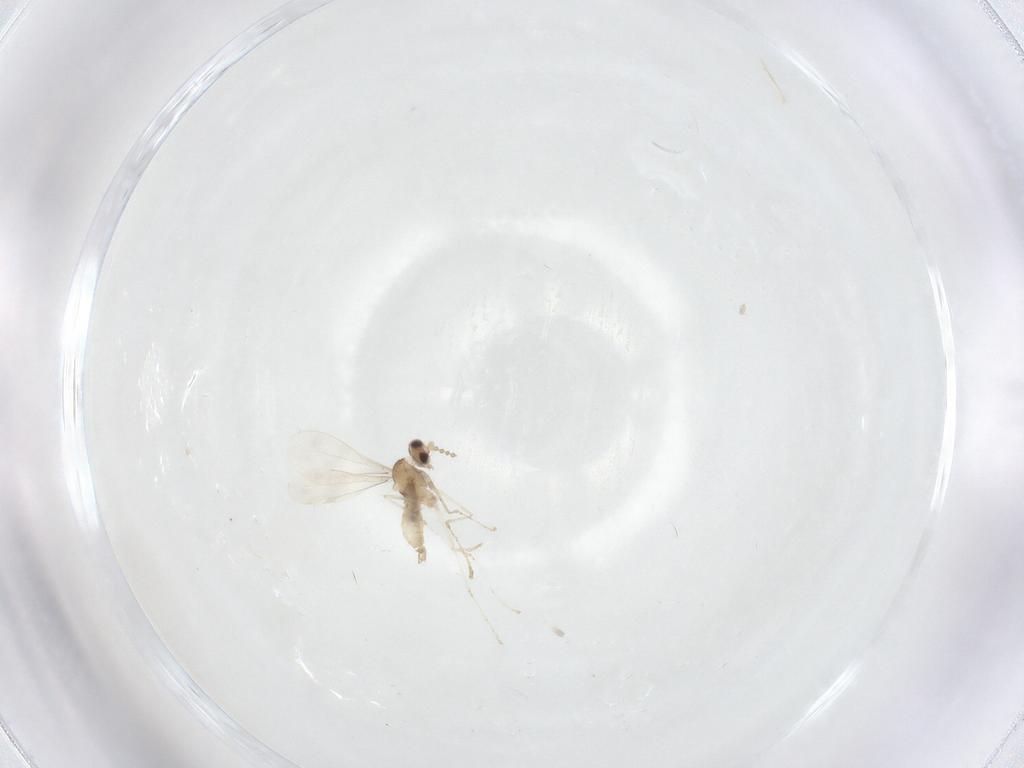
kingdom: Animalia
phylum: Arthropoda
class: Insecta
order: Diptera
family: Cecidomyiidae
